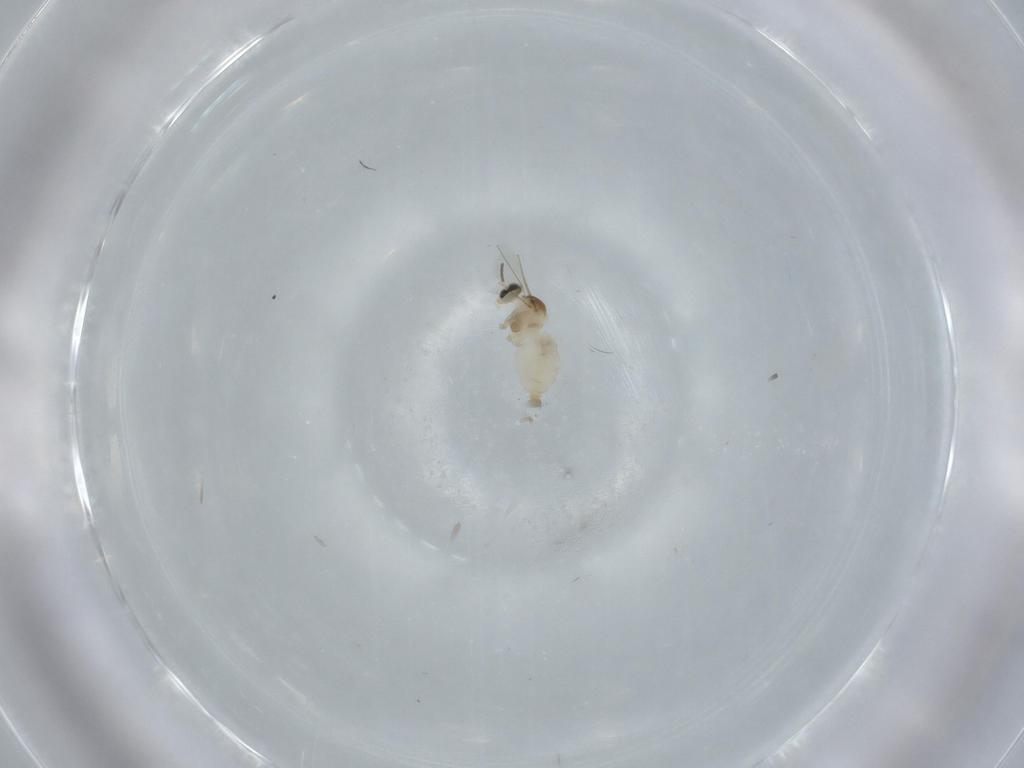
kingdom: Animalia
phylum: Arthropoda
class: Insecta
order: Diptera
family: Cecidomyiidae
